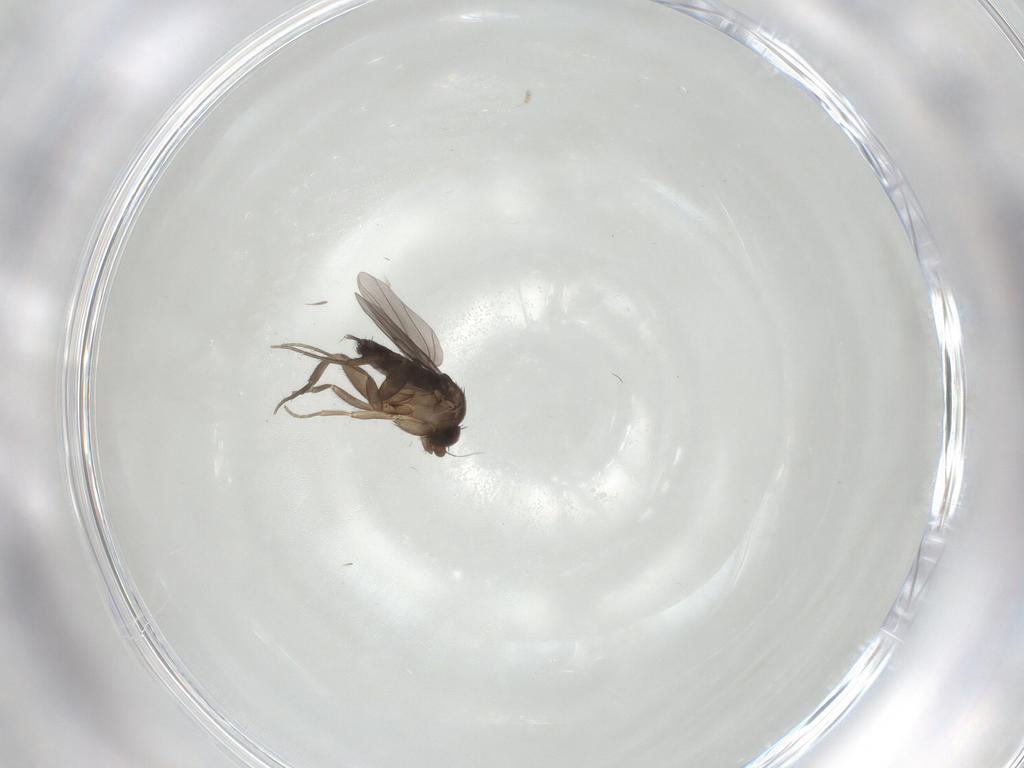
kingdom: Animalia
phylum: Arthropoda
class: Insecta
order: Diptera
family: Phoridae
